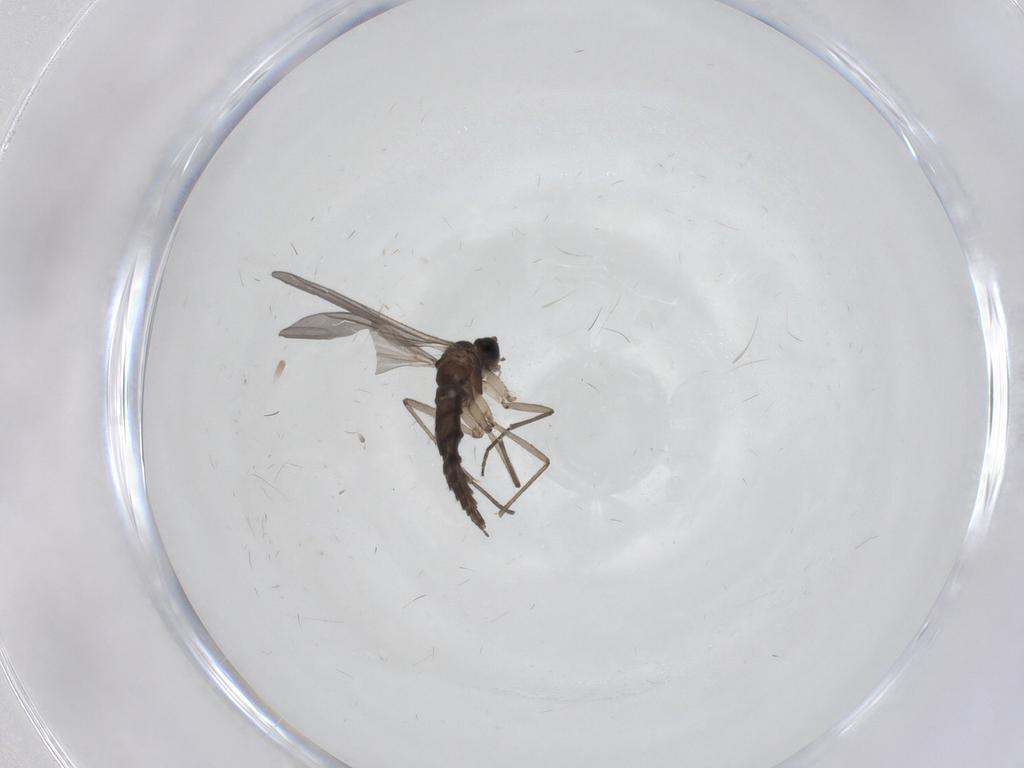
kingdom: Animalia
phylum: Arthropoda
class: Insecta
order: Diptera
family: Sciaridae
